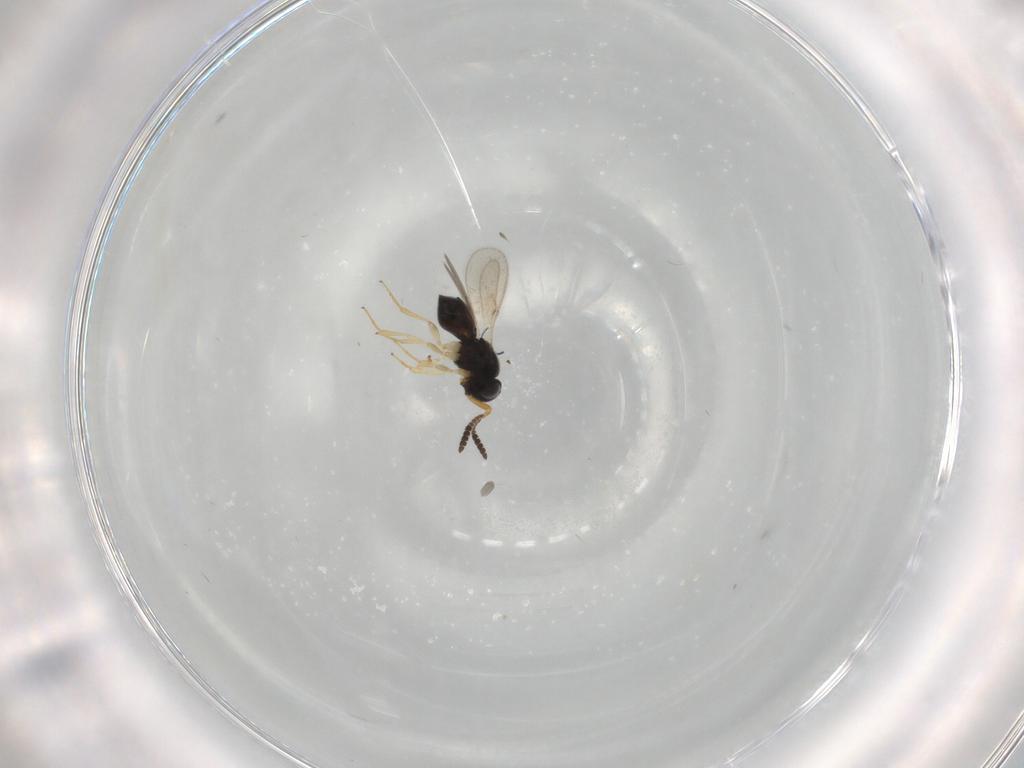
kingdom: Animalia
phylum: Arthropoda
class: Insecta
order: Hymenoptera
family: Scelionidae
